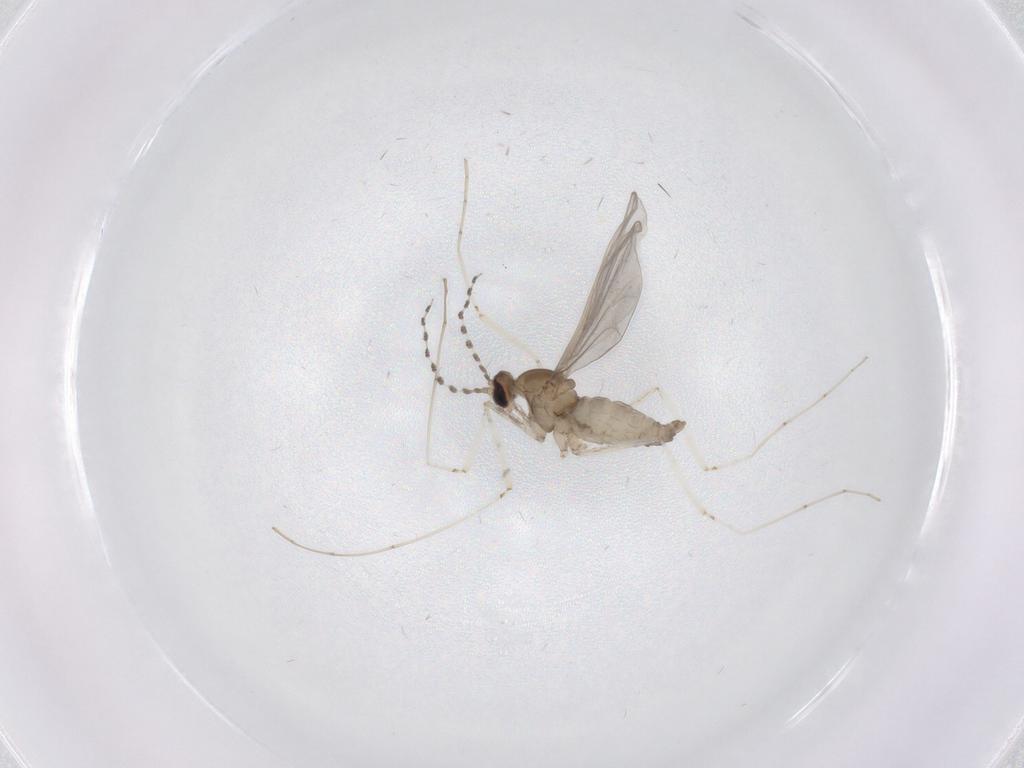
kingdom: Animalia
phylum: Arthropoda
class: Insecta
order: Diptera
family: Cecidomyiidae
